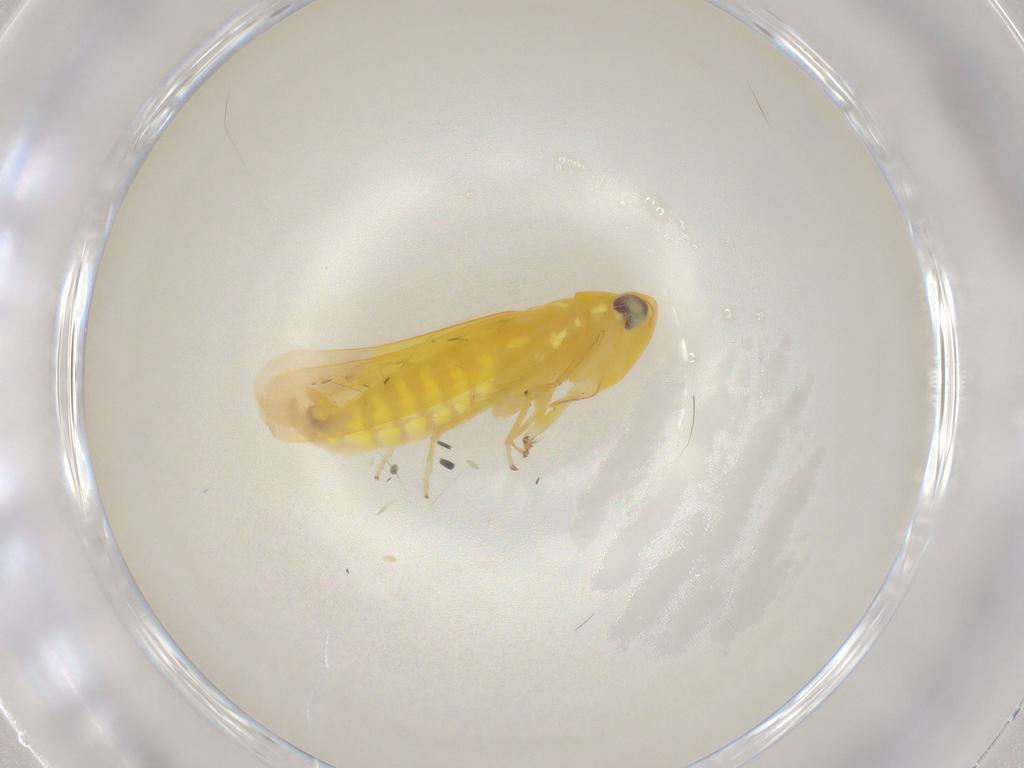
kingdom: Animalia
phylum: Arthropoda
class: Insecta
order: Hemiptera
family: Cicadellidae
